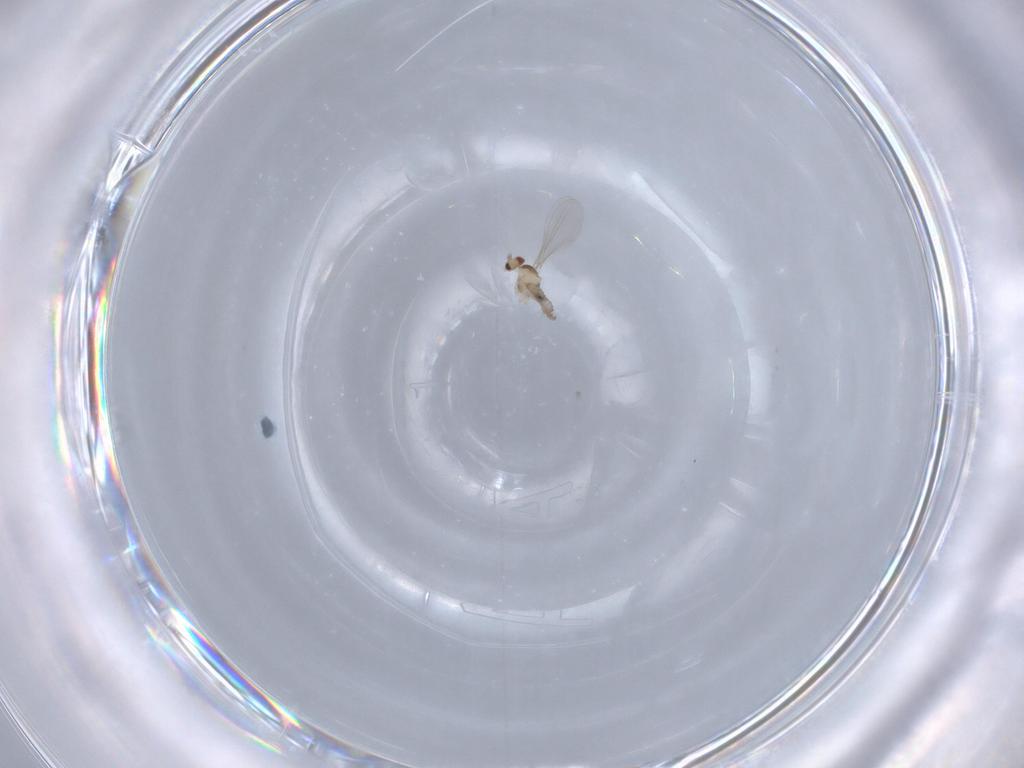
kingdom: Animalia
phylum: Arthropoda
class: Insecta
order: Diptera
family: Cecidomyiidae
